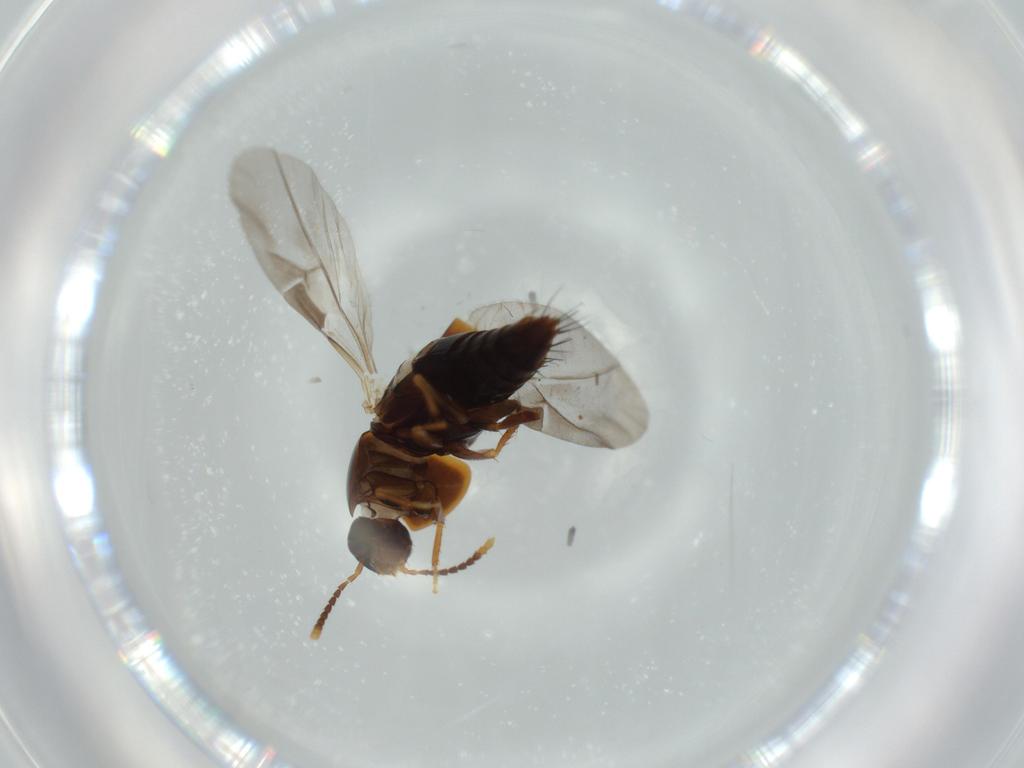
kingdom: Animalia
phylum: Arthropoda
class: Insecta
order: Coleoptera
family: Staphylinidae
